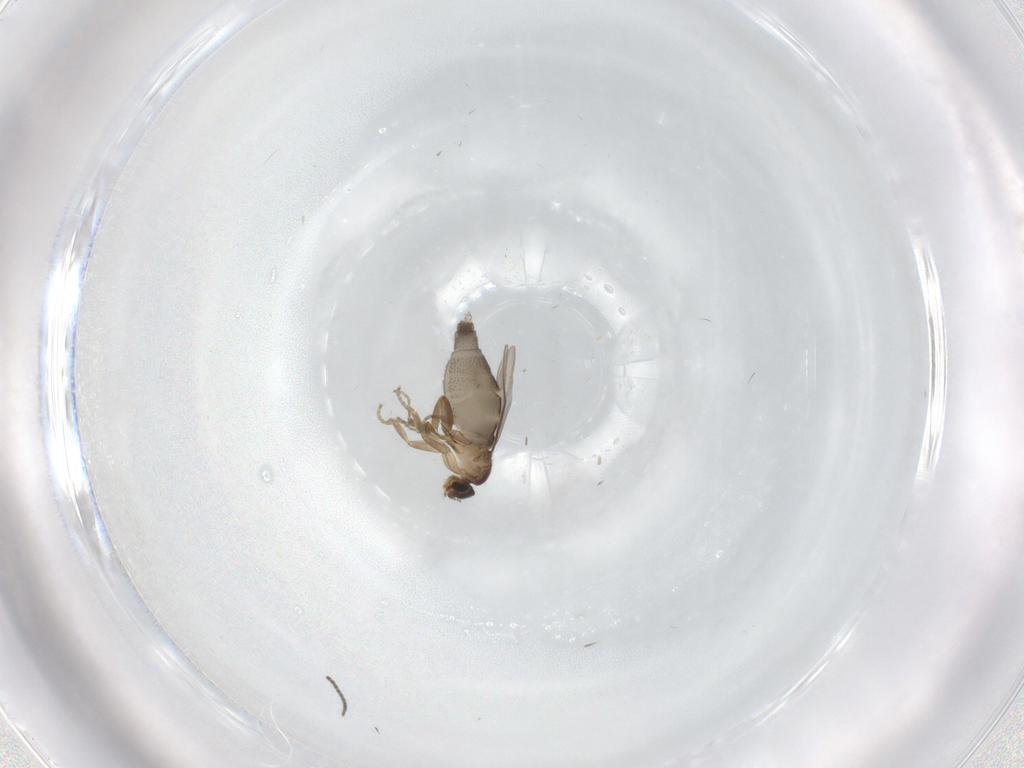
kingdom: Animalia
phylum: Arthropoda
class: Insecta
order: Diptera
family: Phoridae
